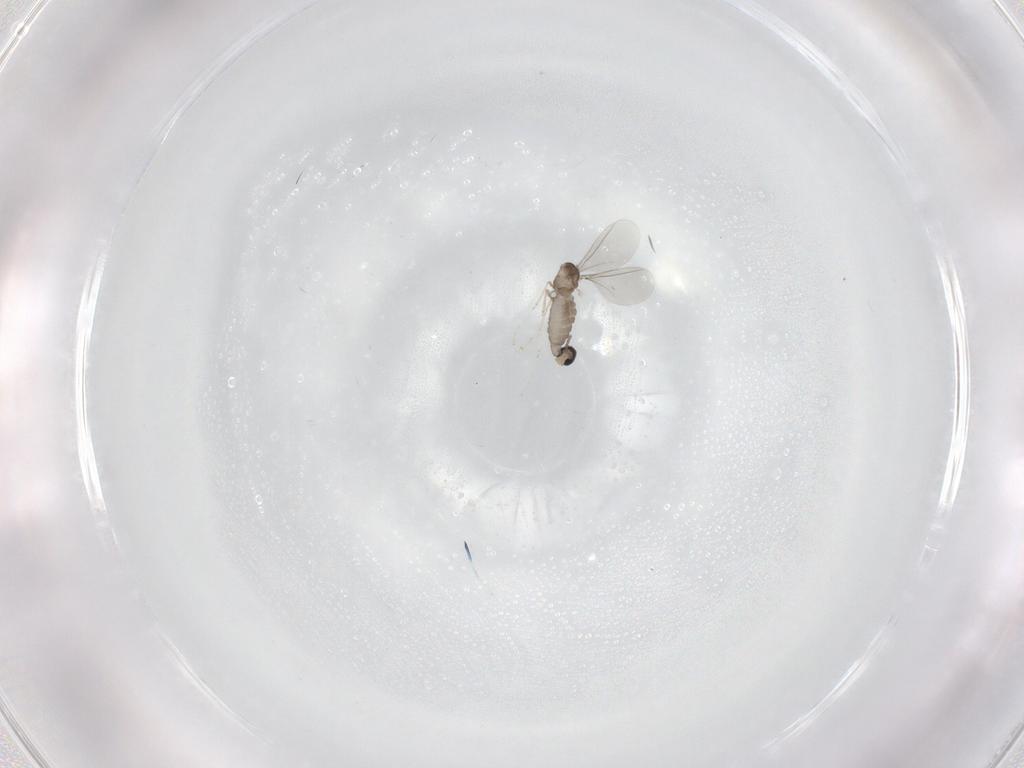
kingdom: Animalia
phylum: Arthropoda
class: Insecta
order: Diptera
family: Cecidomyiidae
